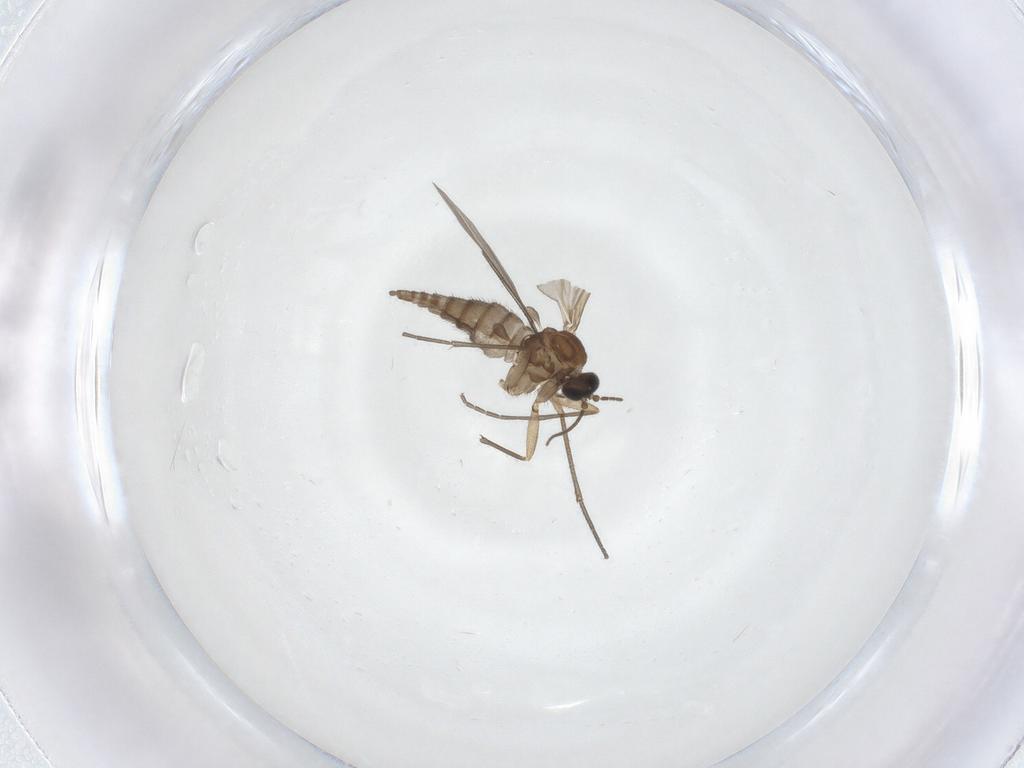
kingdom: Animalia
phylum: Arthropoda
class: Insecta
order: Diptera
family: Sciaridae
